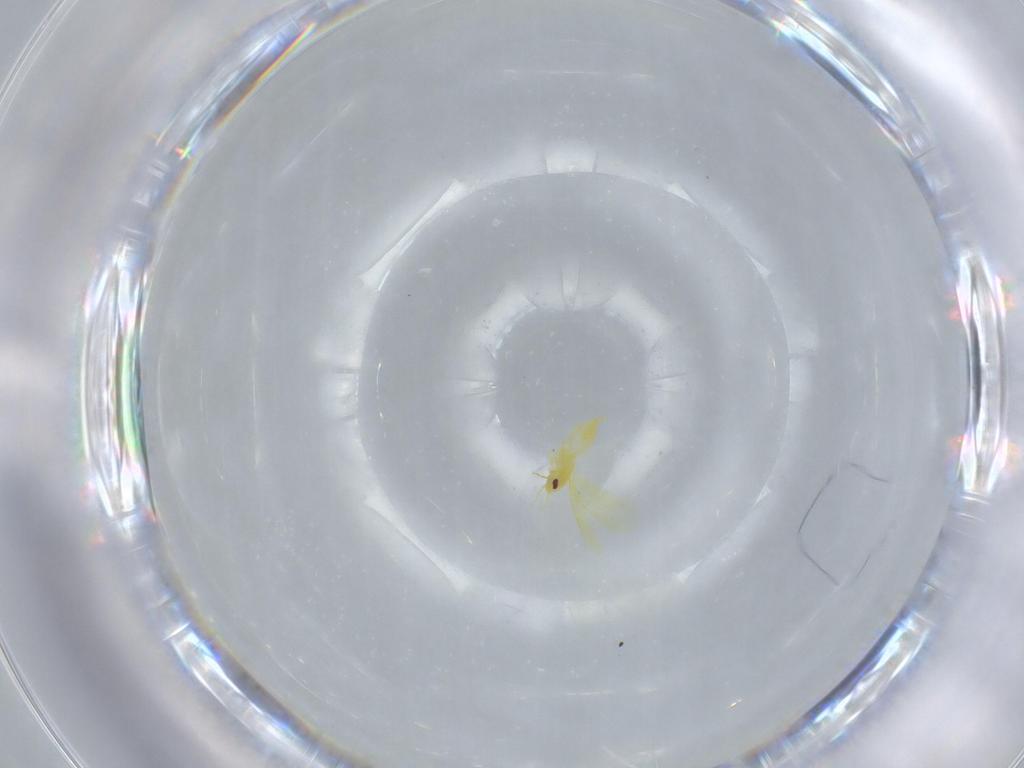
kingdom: Animalia
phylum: Arthropoda
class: Insecta
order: Hemiptera
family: Aleyrodidae
